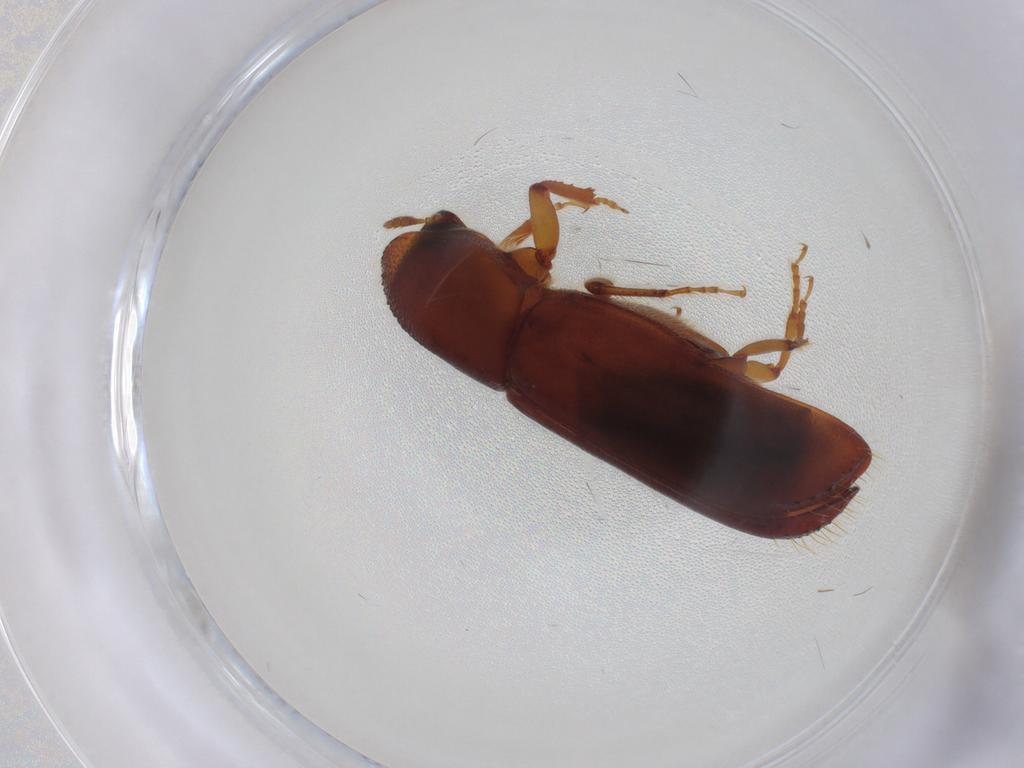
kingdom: Animalia
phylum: Arthropoda
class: Insecta
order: Coleoptera
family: Curculionidae
